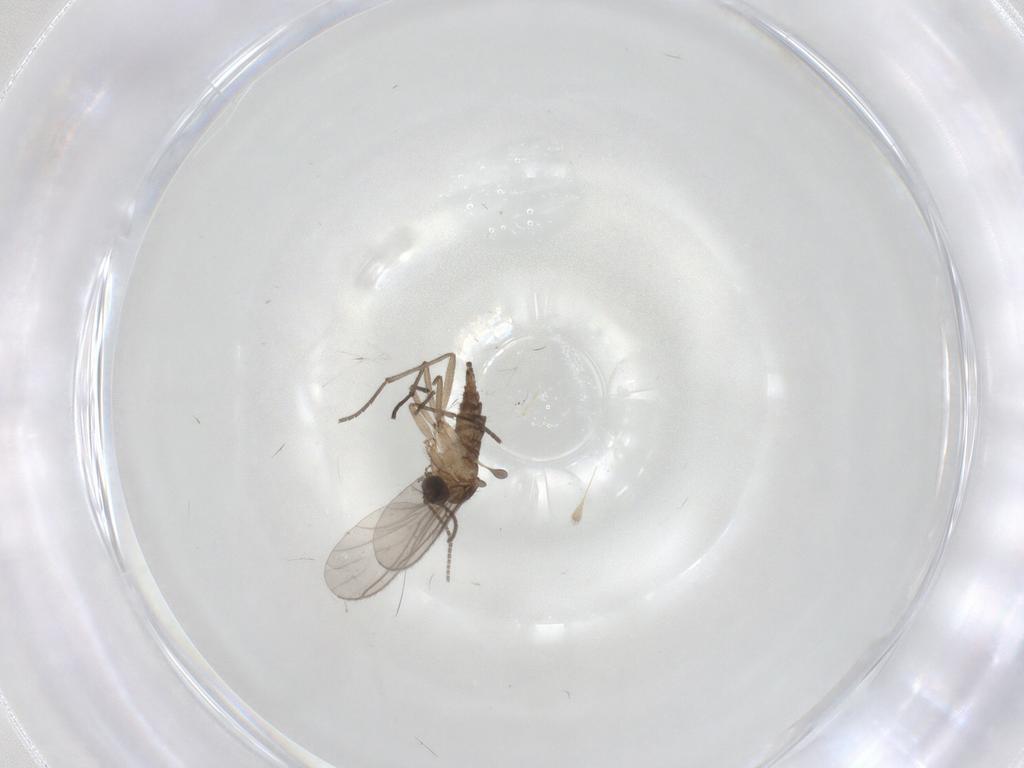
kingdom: Animalia
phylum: Arthropoda
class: Insecta
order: Diptera
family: Sciaridae
